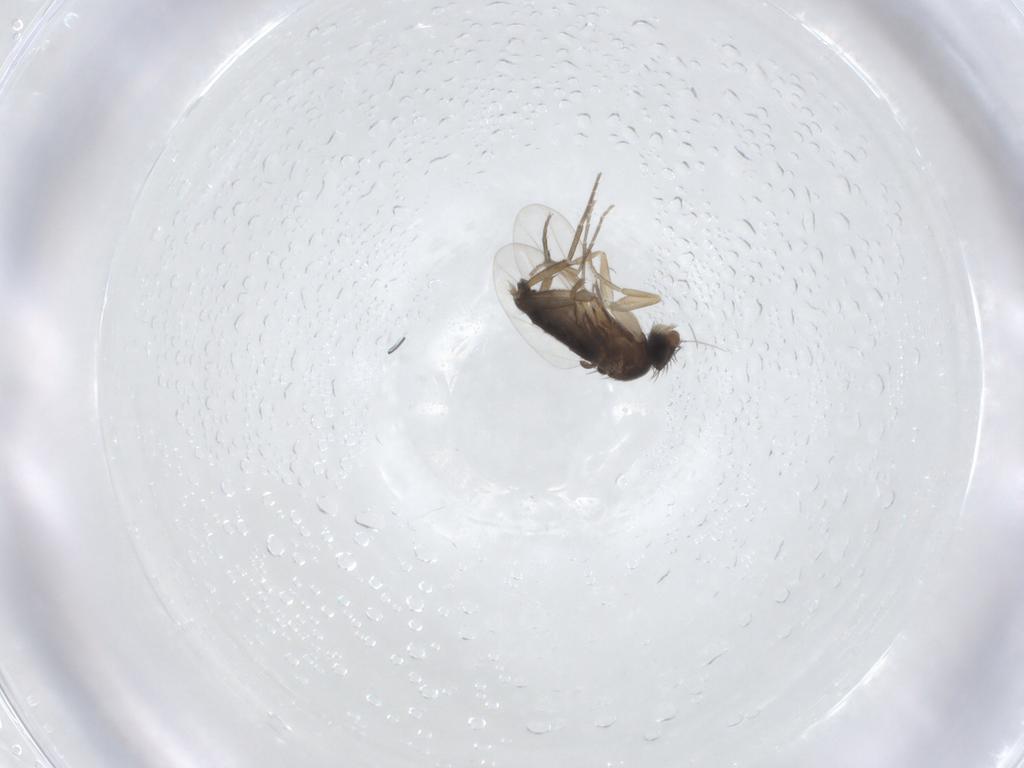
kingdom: Animalia
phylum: Arthropoda
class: Insecta
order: Diptera
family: Phoridae
